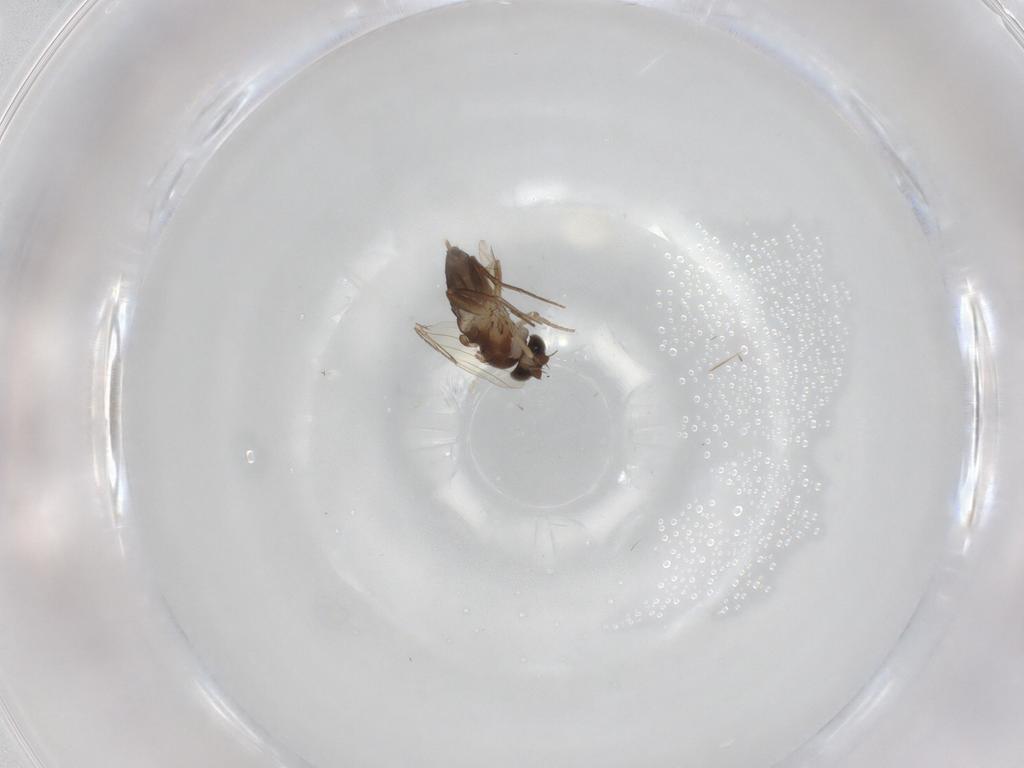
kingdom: Animalia
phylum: Arthropoda
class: Insecta
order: Diptera
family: Phoridae
